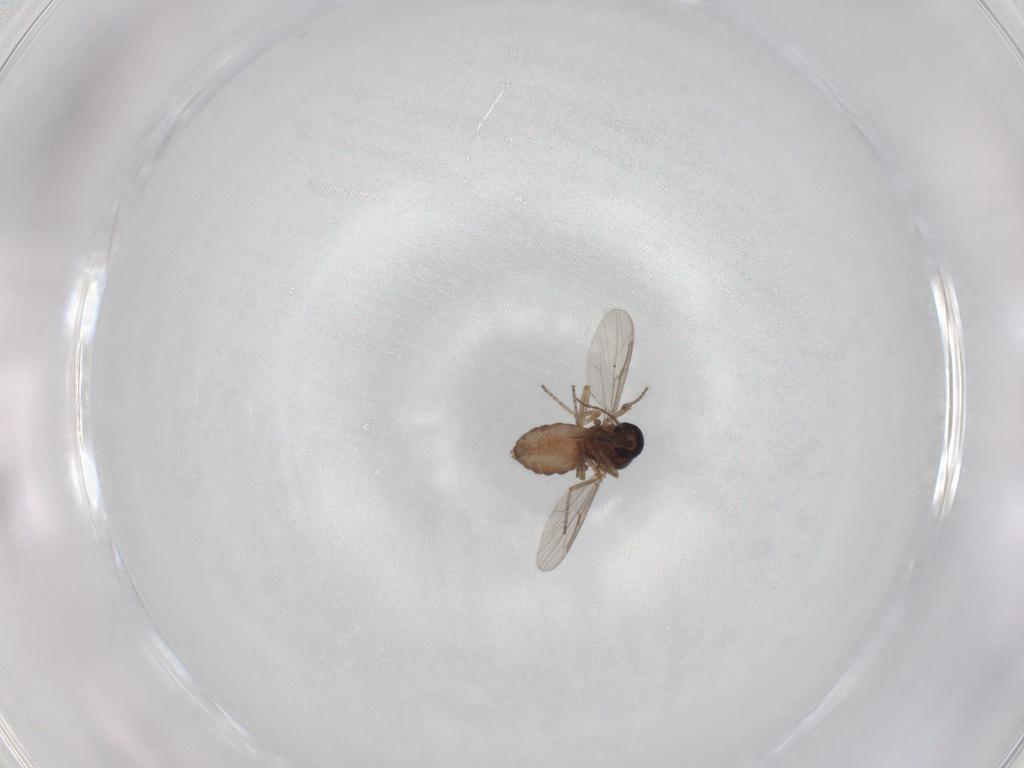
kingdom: Animalia
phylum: Arthropoda
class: Insecta
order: Diptera
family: Ceratopogonidae
